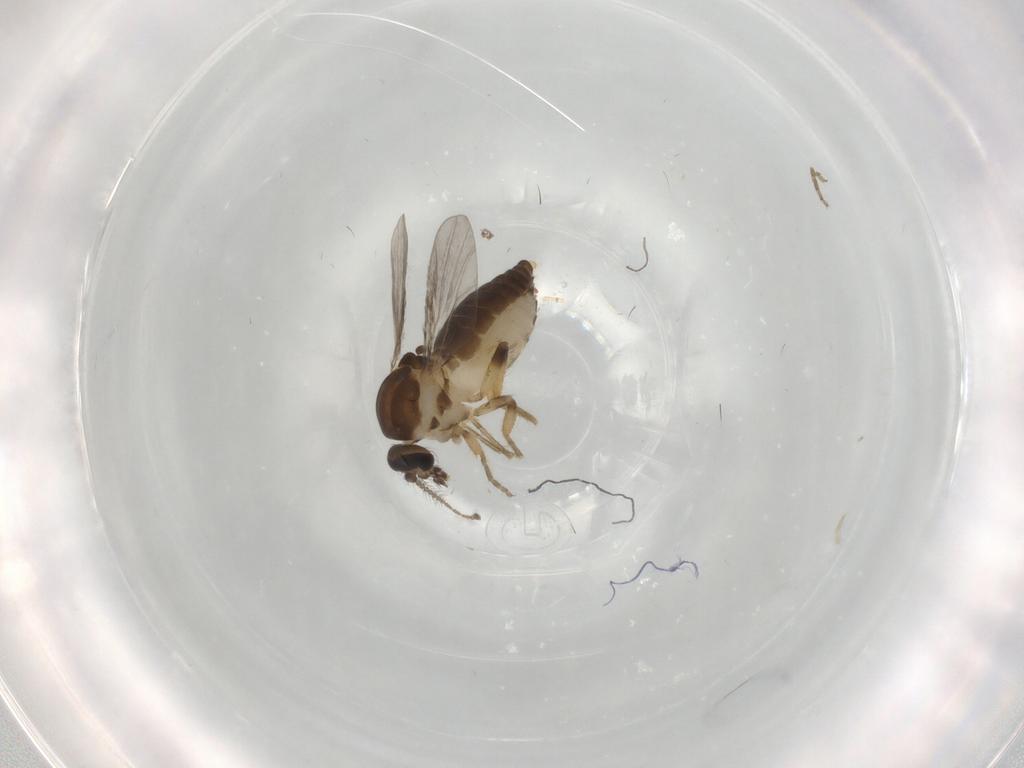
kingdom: Animalia
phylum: Arthropoda
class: Insecta
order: Diptera
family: Ceratopogonidae
